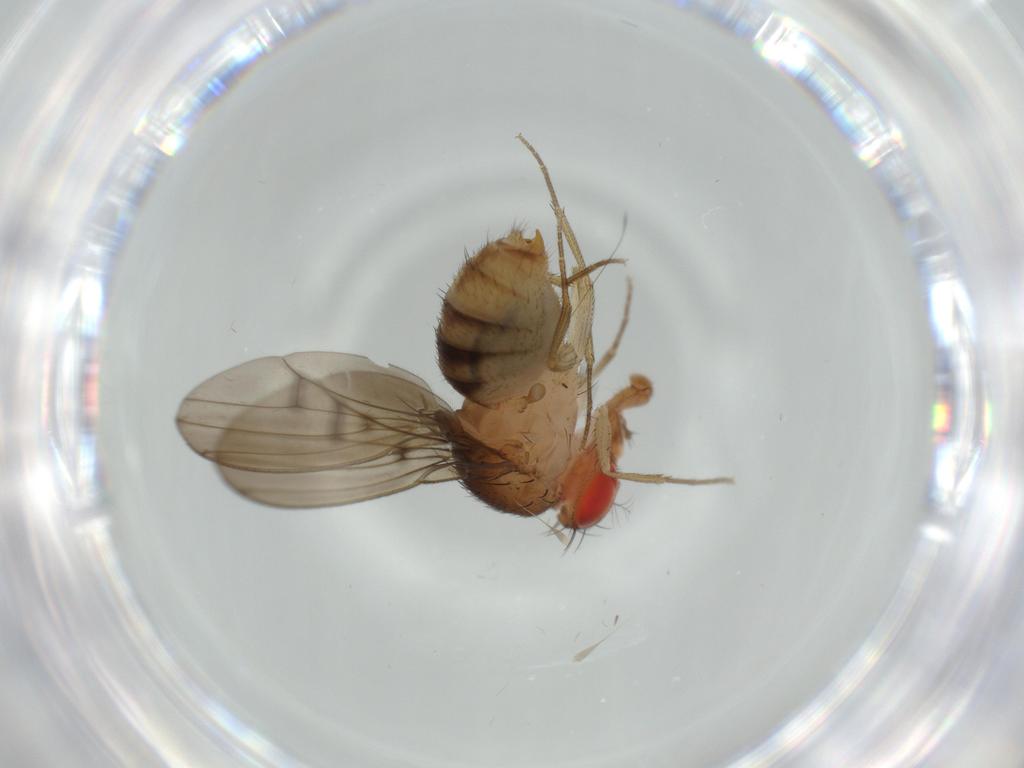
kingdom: Animalia
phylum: Arthropoda
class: Insecta
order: Diptera
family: Drosophilidae
